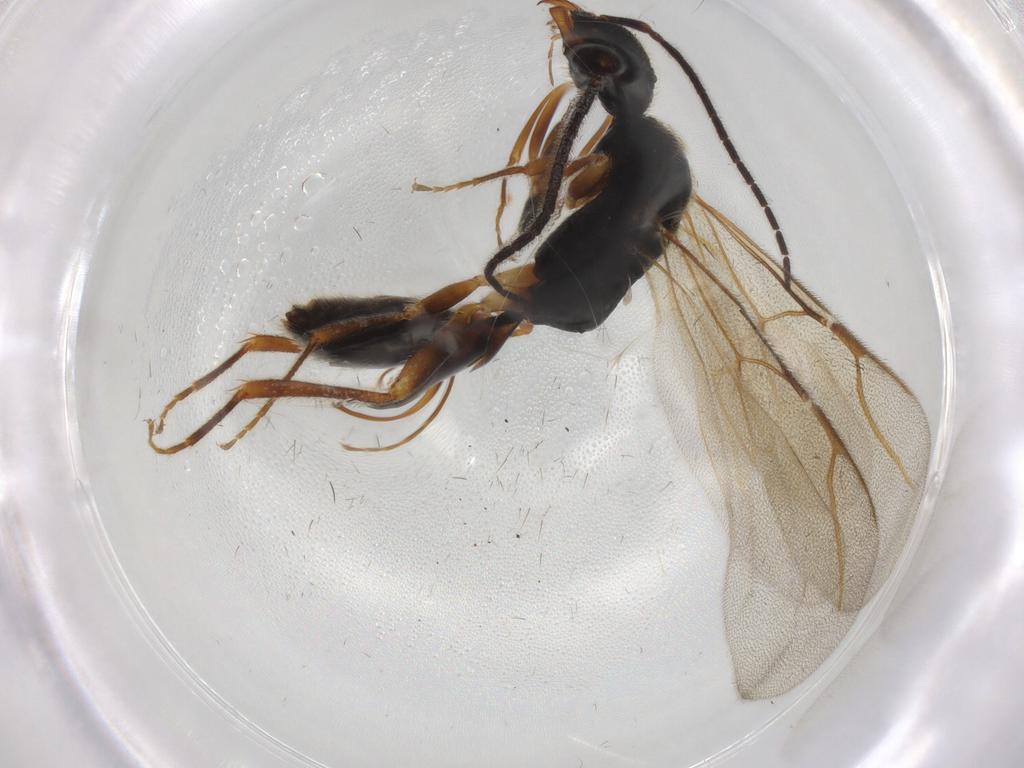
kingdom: Animalia
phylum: Arthropoda
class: Insecta
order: Hymenoptera
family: Bethylidae
